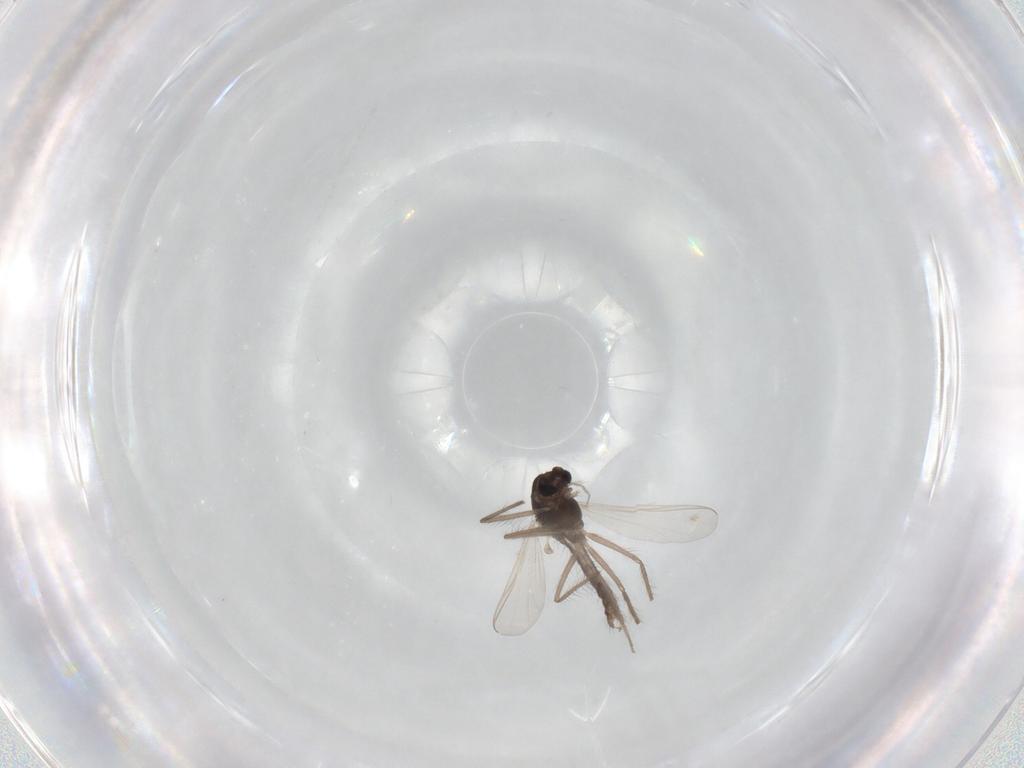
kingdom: Animalia
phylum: Arthropoda
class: Insecta
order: Diptera
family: Chironomidae
